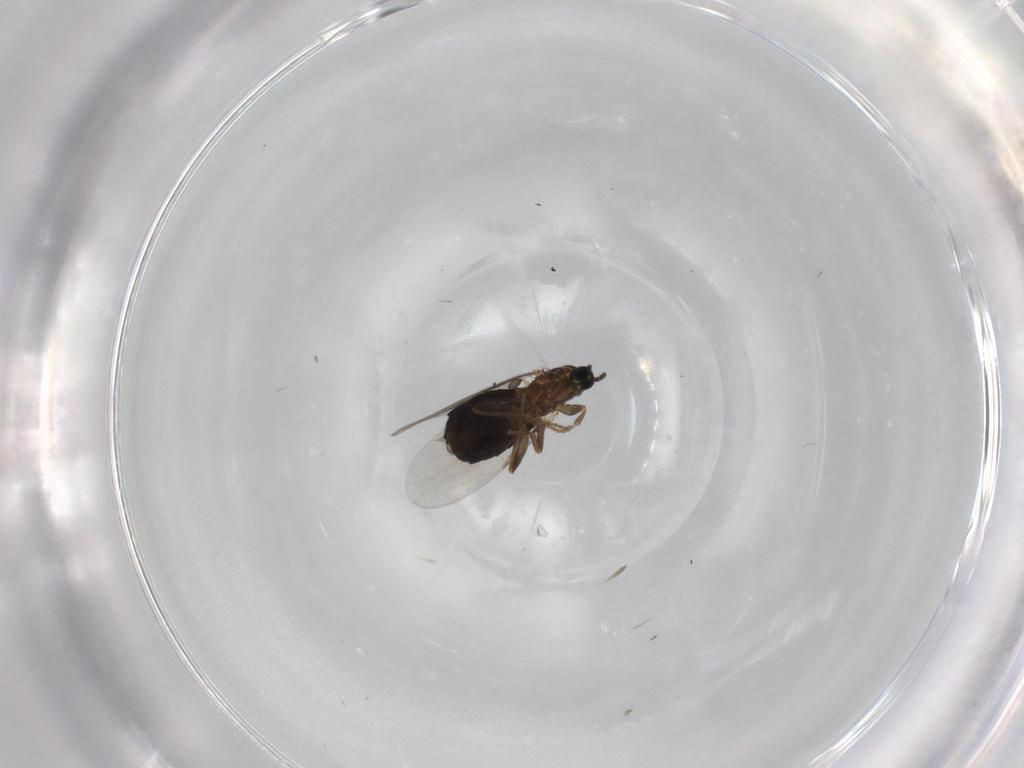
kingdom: Animalia
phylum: Arthropoda
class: Insecta
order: Diptera
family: Scatopsidae
